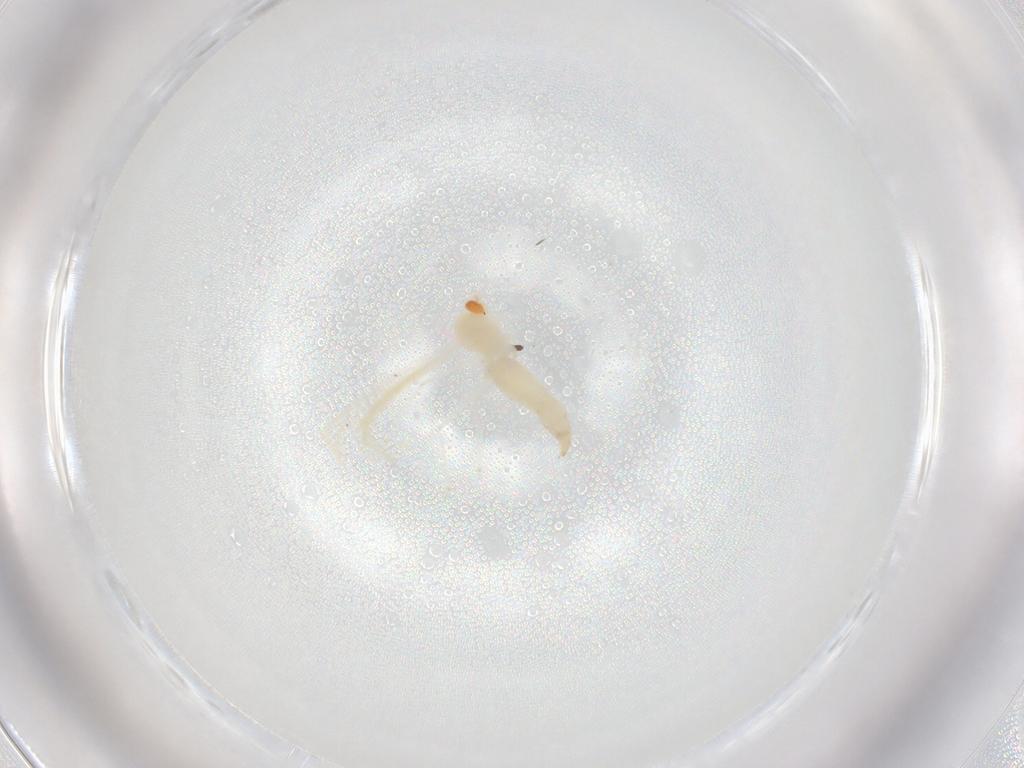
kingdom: Animalia
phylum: Arthropoda
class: Insecta
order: Diptera
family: Cecidomyiidae
